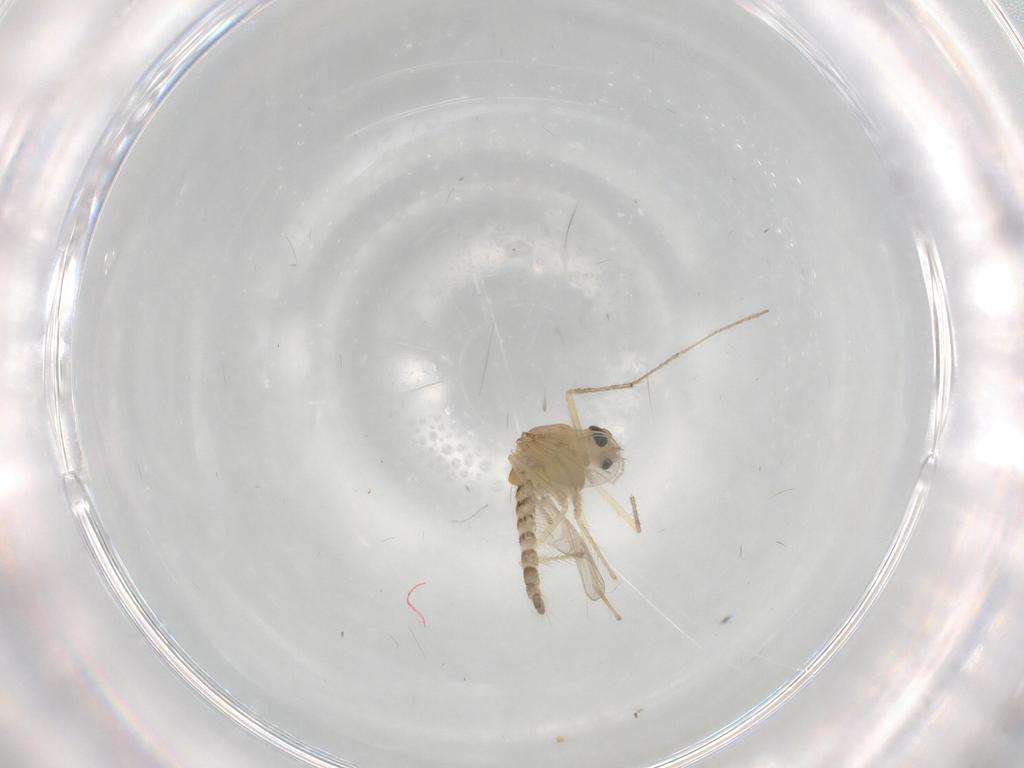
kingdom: Animalia
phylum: Arthropoda
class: Insecta
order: Diptera
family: Chironomidae
